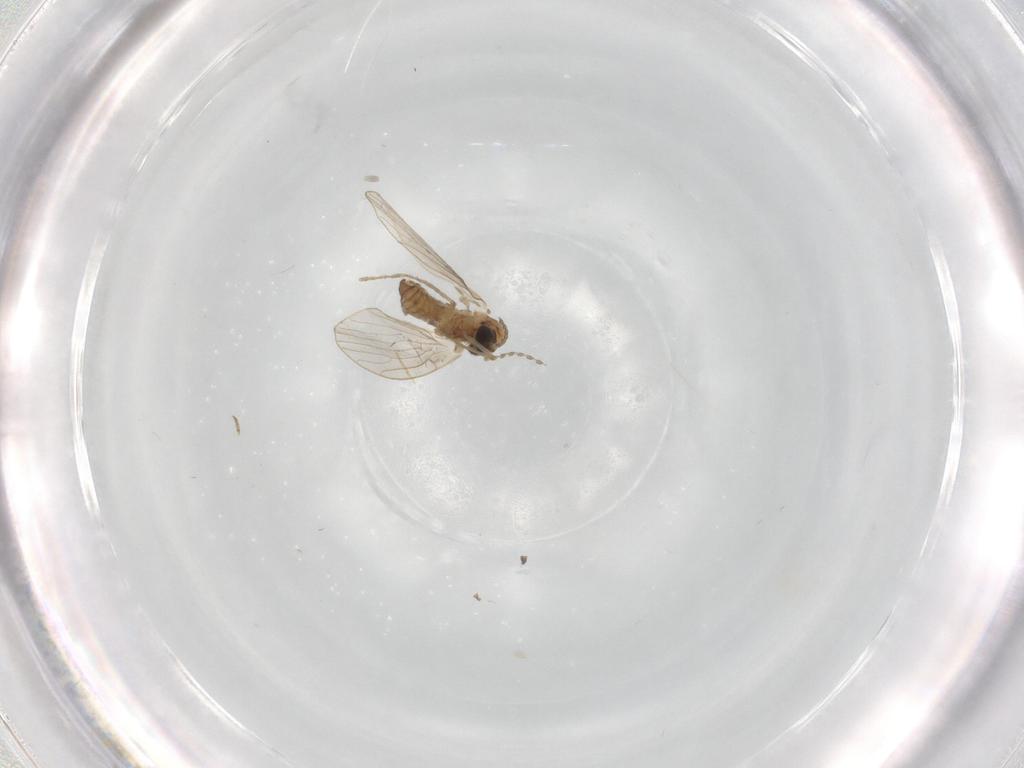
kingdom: Animalia
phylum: Arthropoda
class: Insecta
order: Diptera
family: Psychodidae
